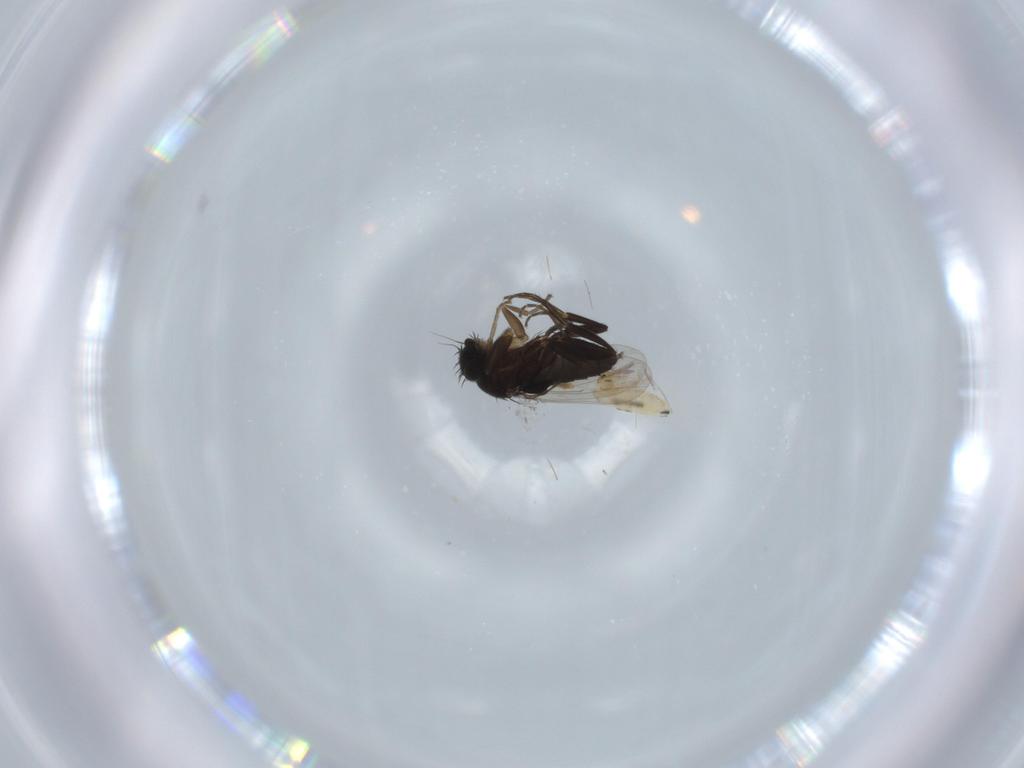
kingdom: Animalia
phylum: Arthropoda
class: Insecta
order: Diptera
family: Phoridae
